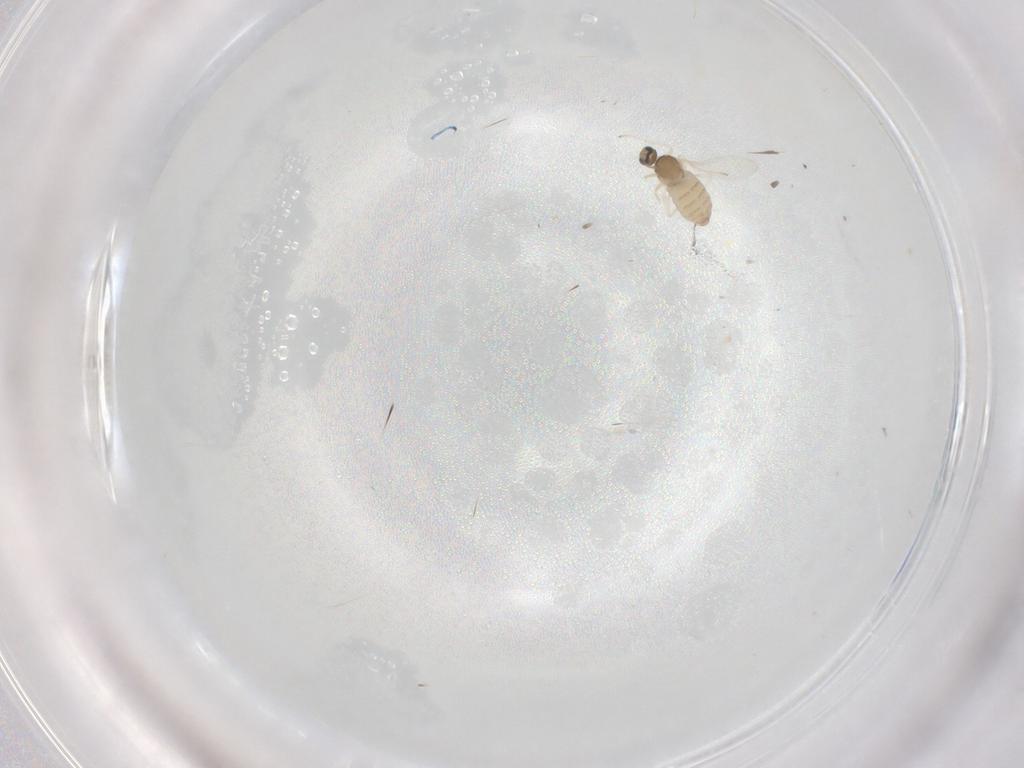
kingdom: Animalia
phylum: Arthropoda
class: Insecta
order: Diptera
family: Cecidomyiidae
